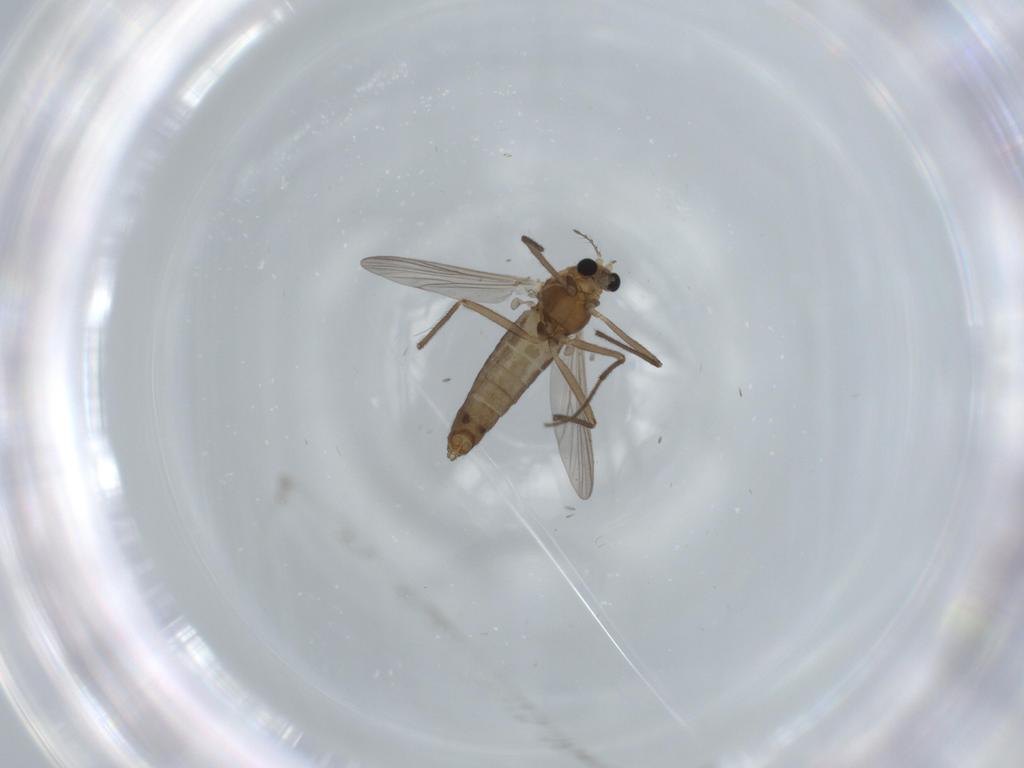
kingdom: Animalia
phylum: Arthropoda
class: Insecta
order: Diptera
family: Chironomidae
